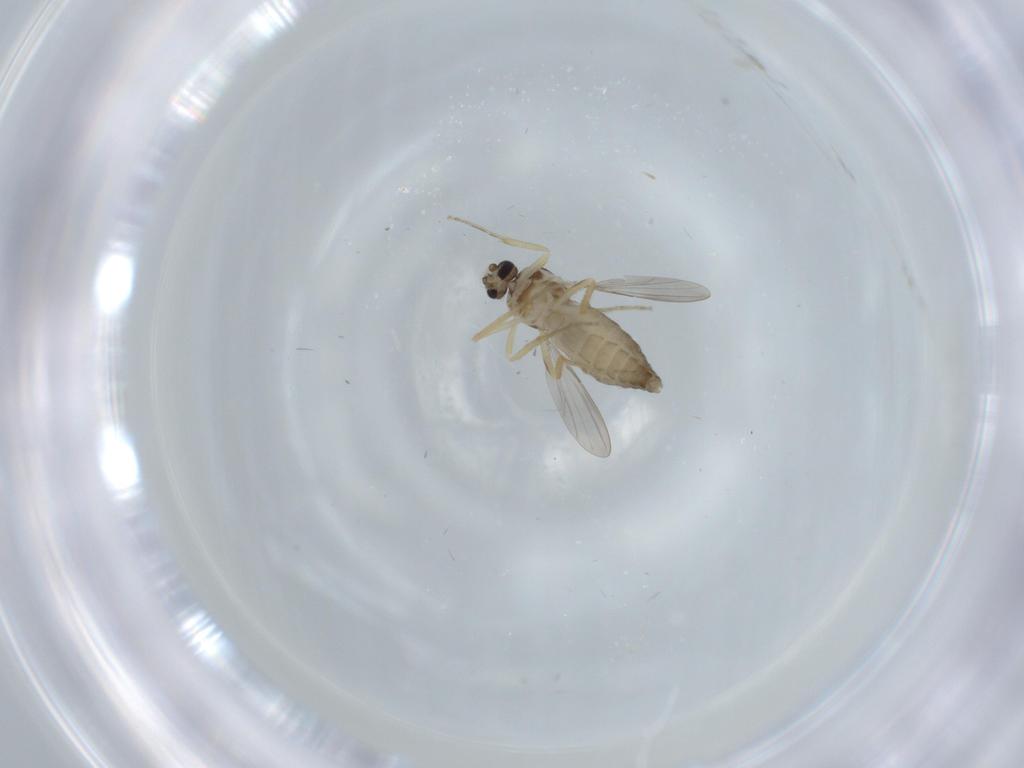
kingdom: Animalia
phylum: Arthropoda
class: Insecta
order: Diptera
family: Ceratopogonidae
